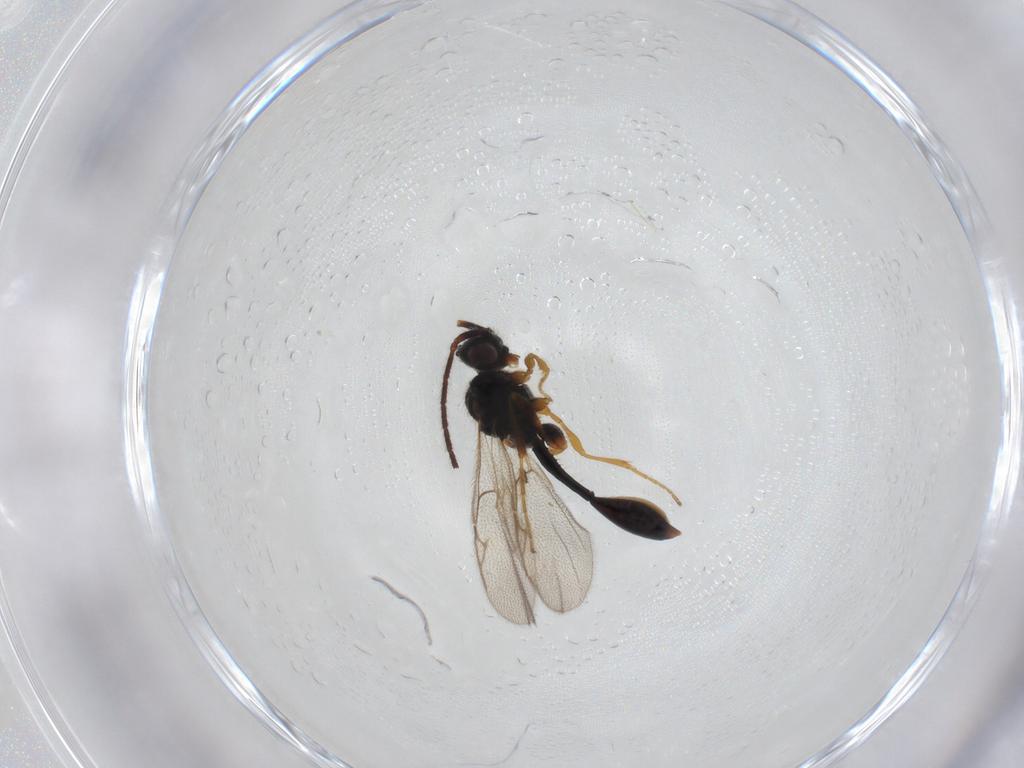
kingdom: Animalia
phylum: Arthropoda
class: Insecta
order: Hymenoptera
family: Diapriidae
